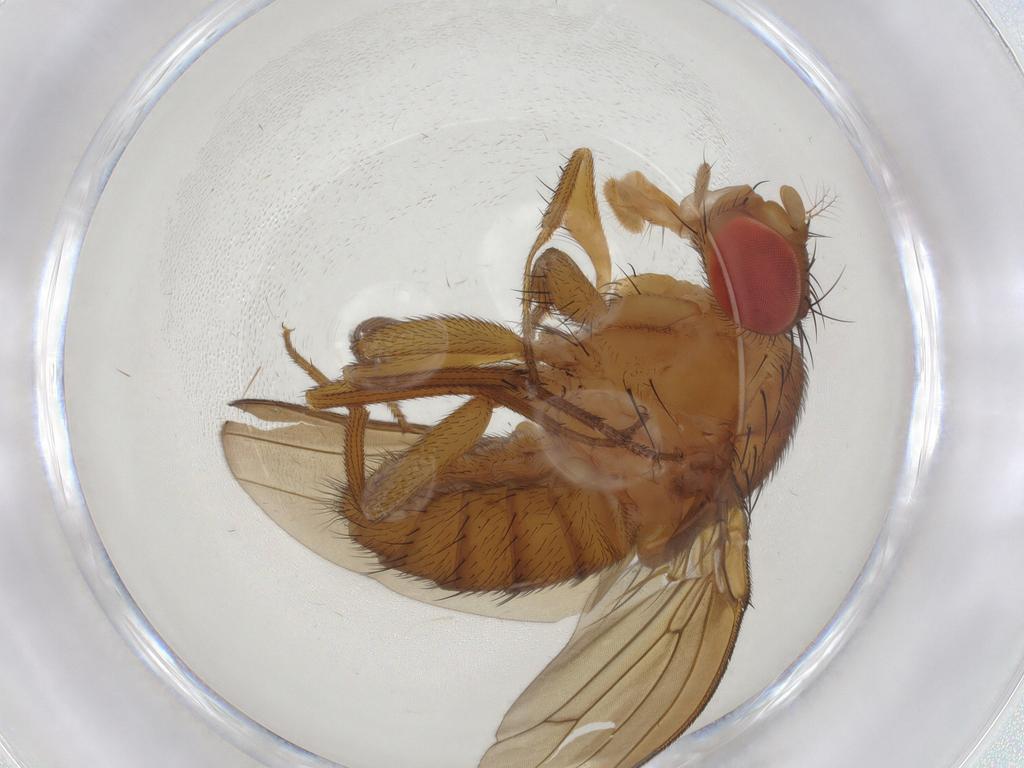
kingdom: Animalia
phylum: Arthropoda
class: Insecta
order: Diptera
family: Drosophilidae
